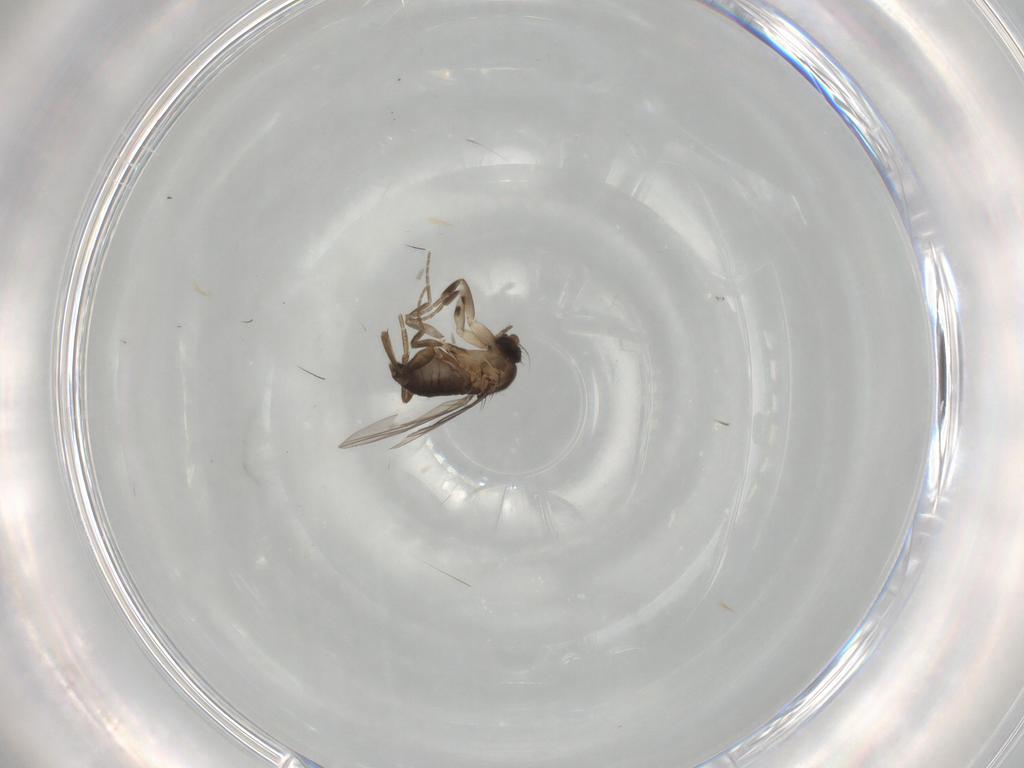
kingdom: Animalia
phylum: Arthropoda
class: Insecta
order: Diptera
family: Phoridae
